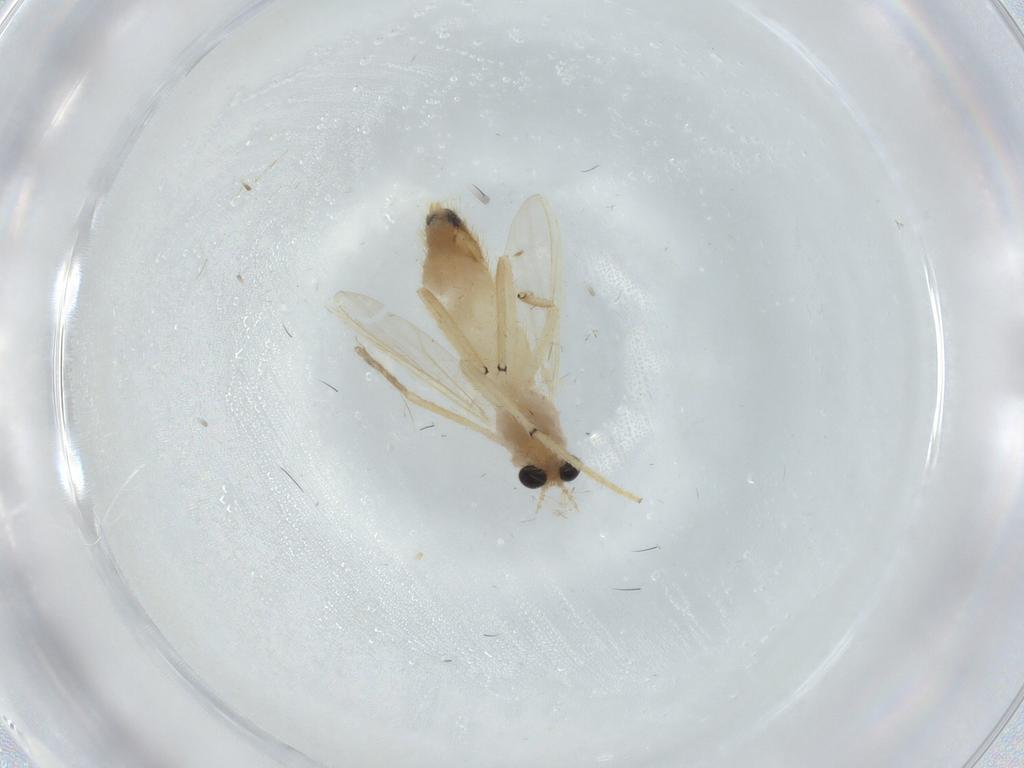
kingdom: Animalia
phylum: Arthropoda
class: Insecta
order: Diptera
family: Chironomidae
